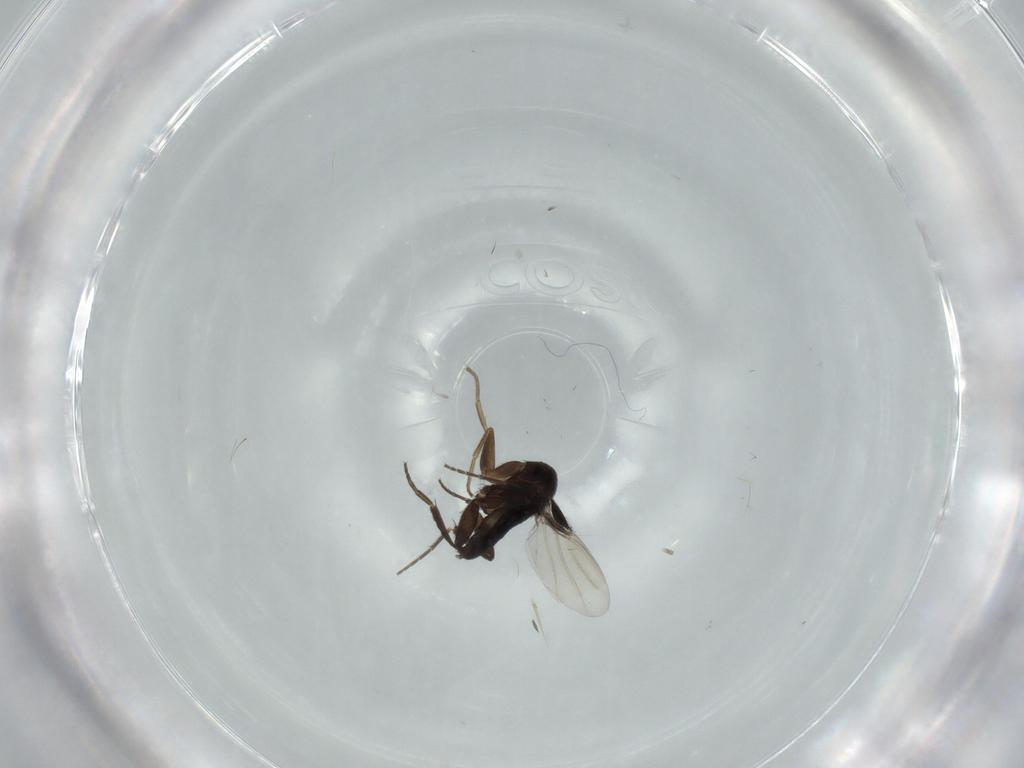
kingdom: Animalia
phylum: Arthropoda
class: Insecta
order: Diptera
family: Phoridae
